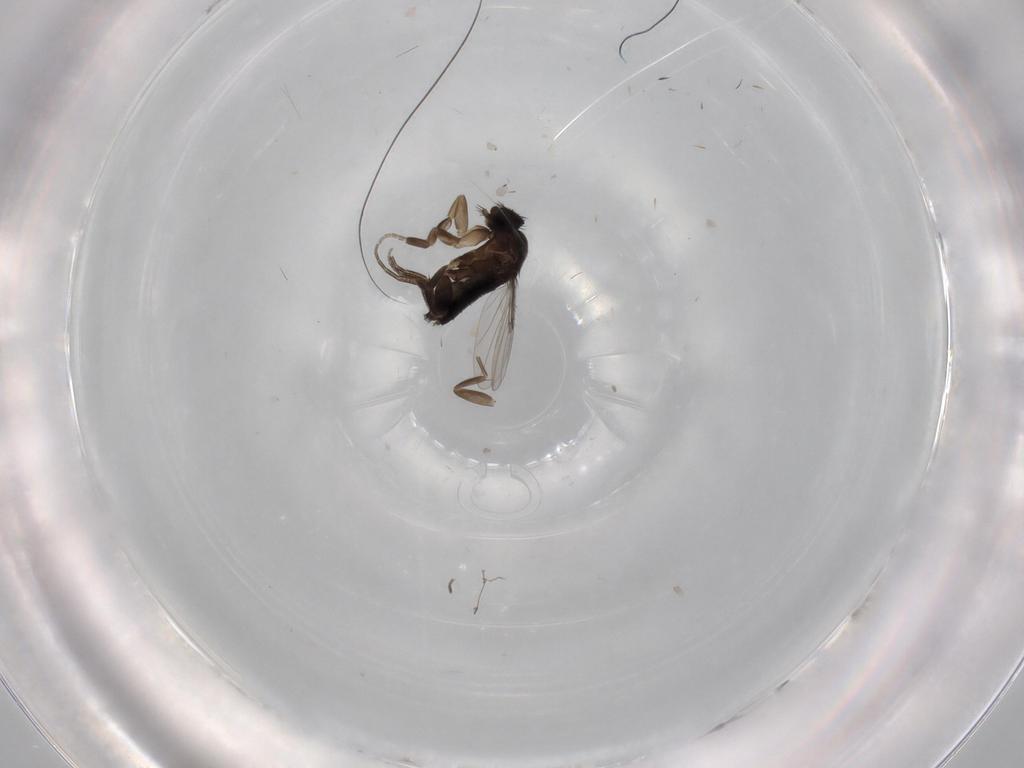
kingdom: Animalia
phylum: Arthropoda
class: Insecta
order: Diptera
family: Phoridae
